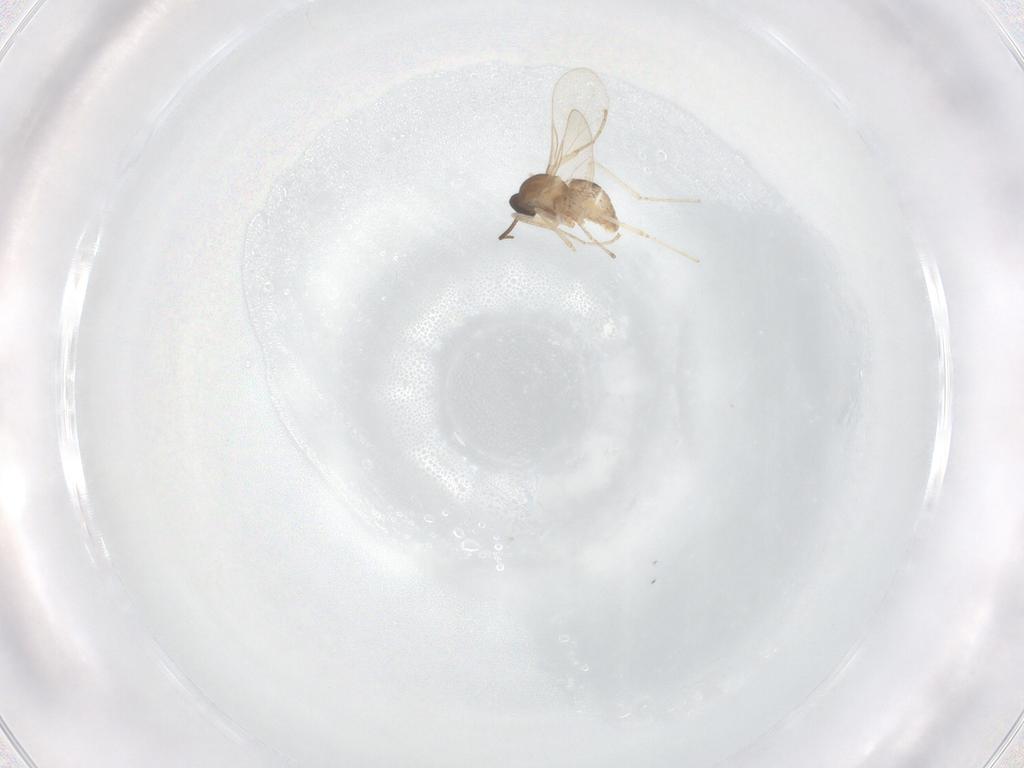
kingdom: Animalia
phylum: Arthropoda
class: Insecta
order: Diptera
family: Cecidomyiidae
